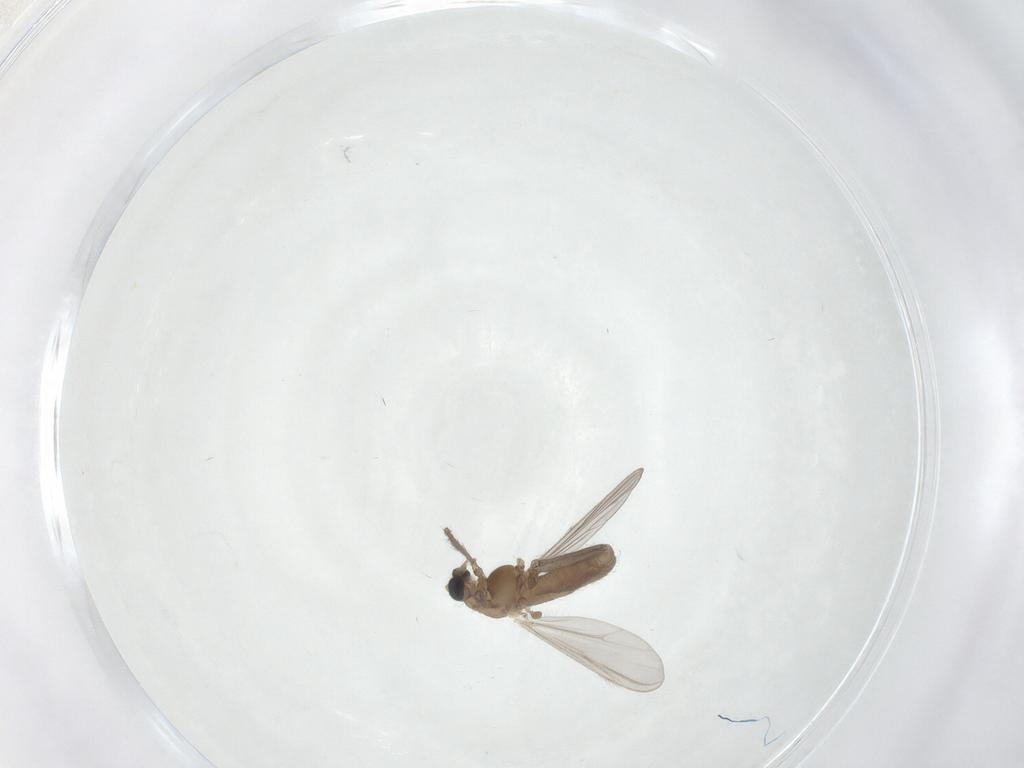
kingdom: Animalia
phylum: Arthropoda
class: Insecta
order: Diptera
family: Chironomidae
